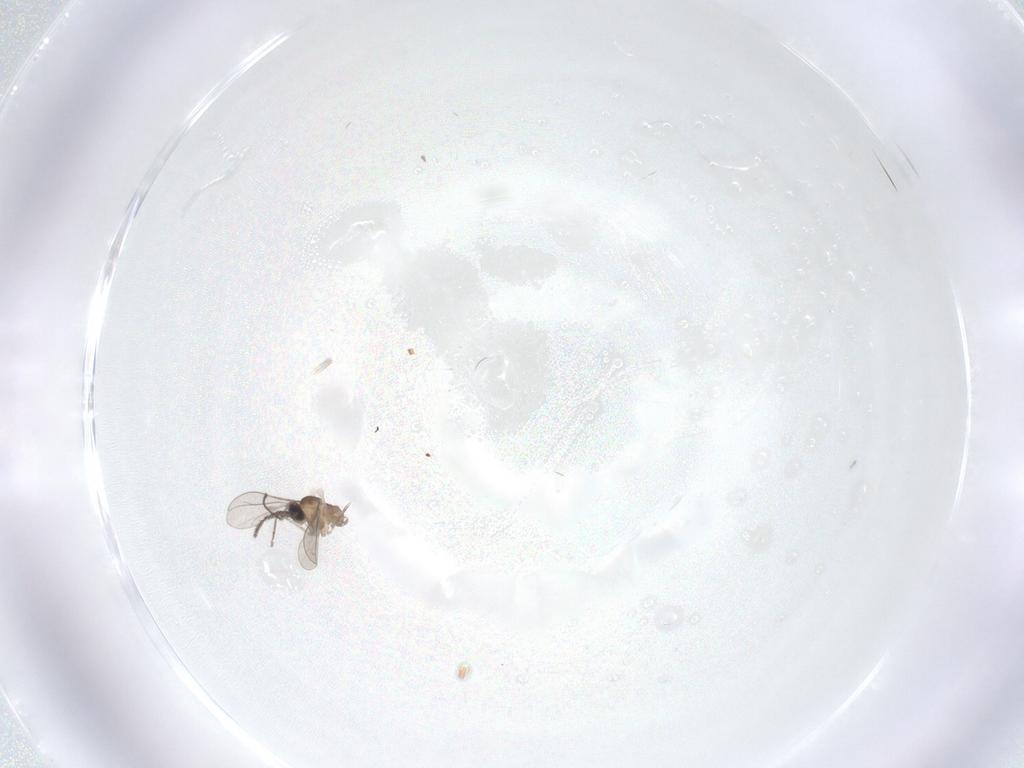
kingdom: Animalia
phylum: Arthropoda
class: Insecta
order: Diptera
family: Cecidomyiidae
